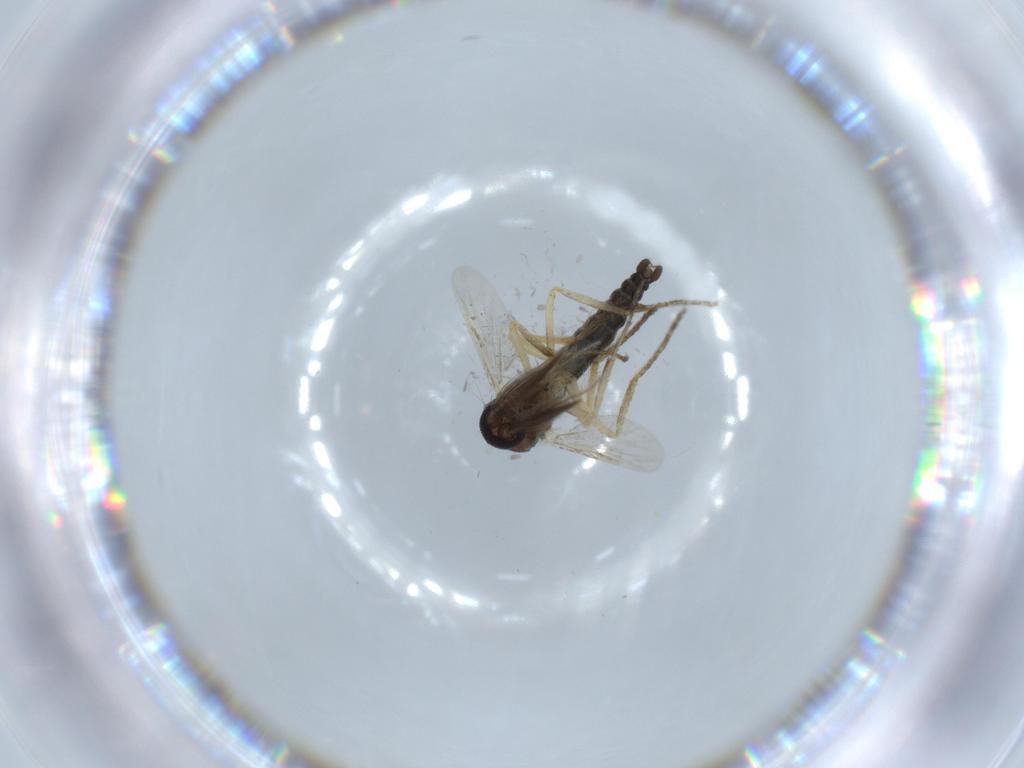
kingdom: Animalia
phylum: Arthropoda
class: Insecta
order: Diptera
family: Ceratopogonidae
